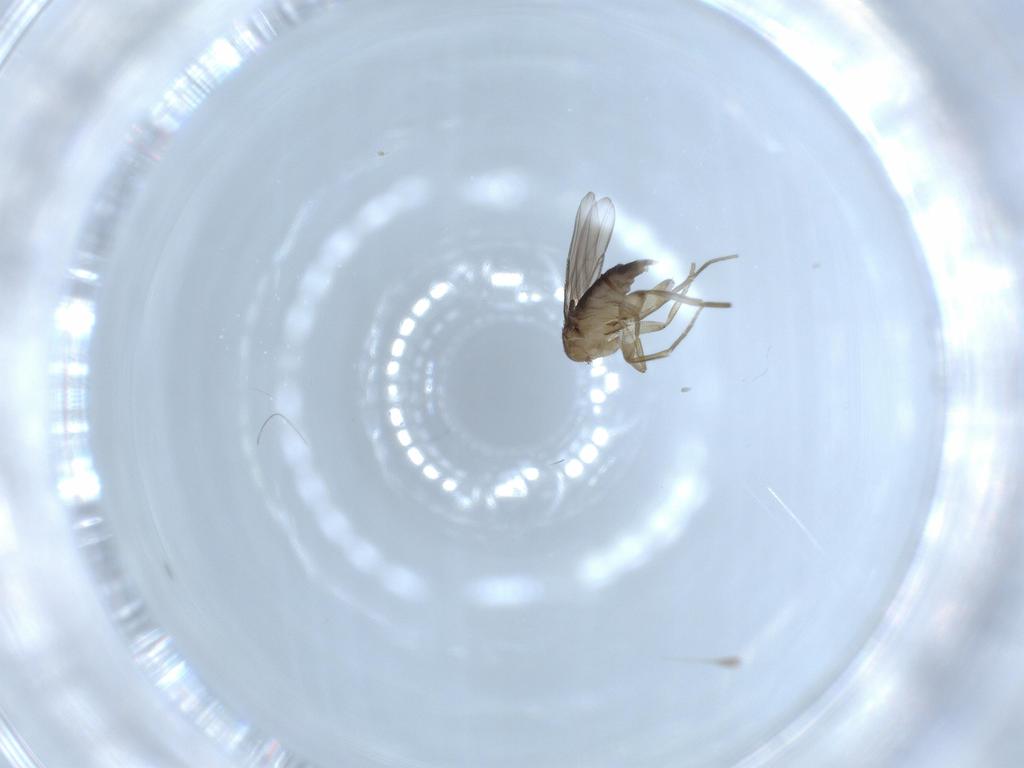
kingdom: Animalia
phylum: Arthropoda
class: Insecta
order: Diptera
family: Phoridae
